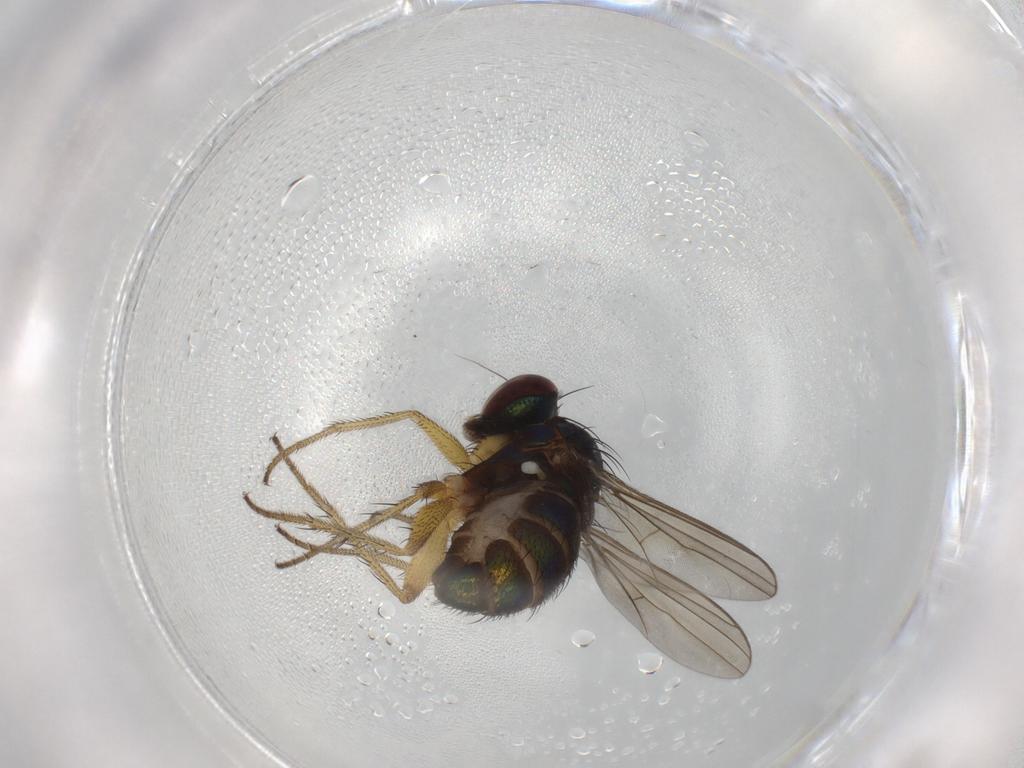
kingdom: Animalia
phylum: Arthropoda
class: Insecta
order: Diptera
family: Dolichopodidae
